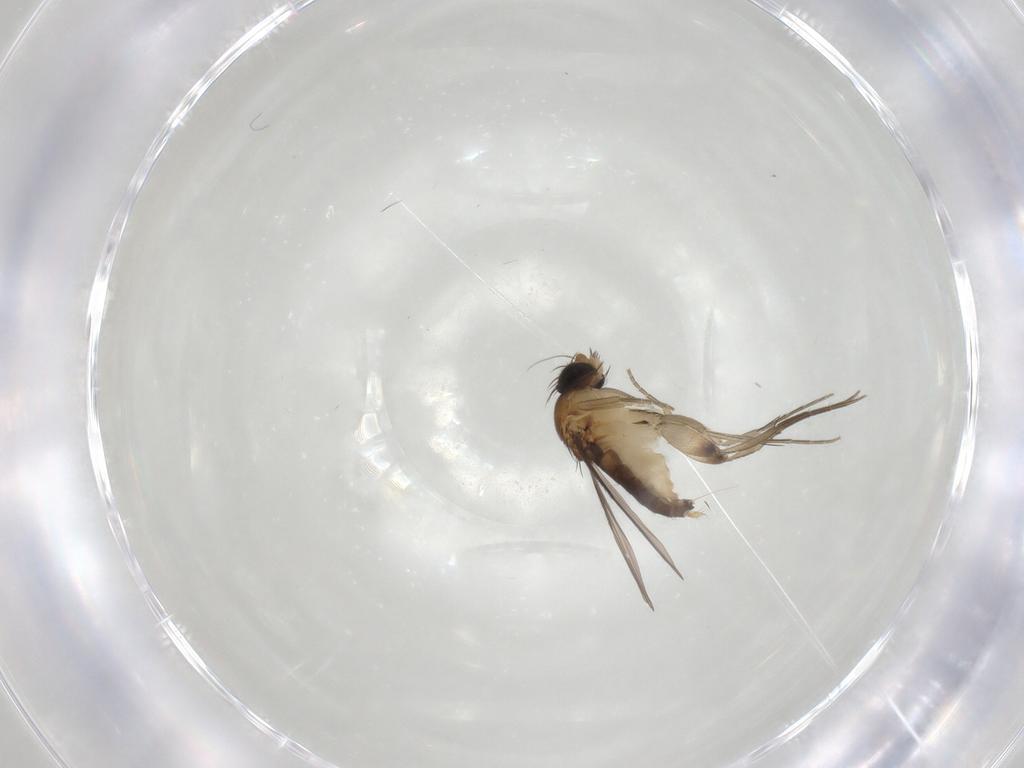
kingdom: Animalia
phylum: Arthropoda
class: Insecta
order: Diptera
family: Phoridae
